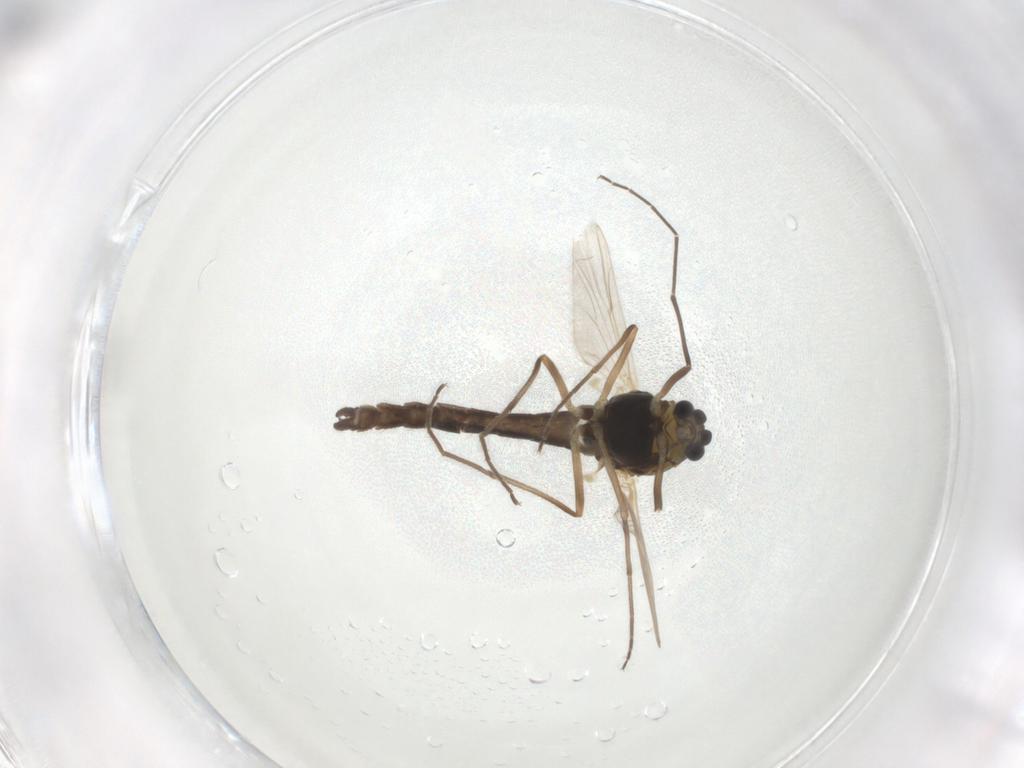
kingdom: Animalia
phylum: Arthropoda
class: Insecta
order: Diptera
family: Chironomidae
